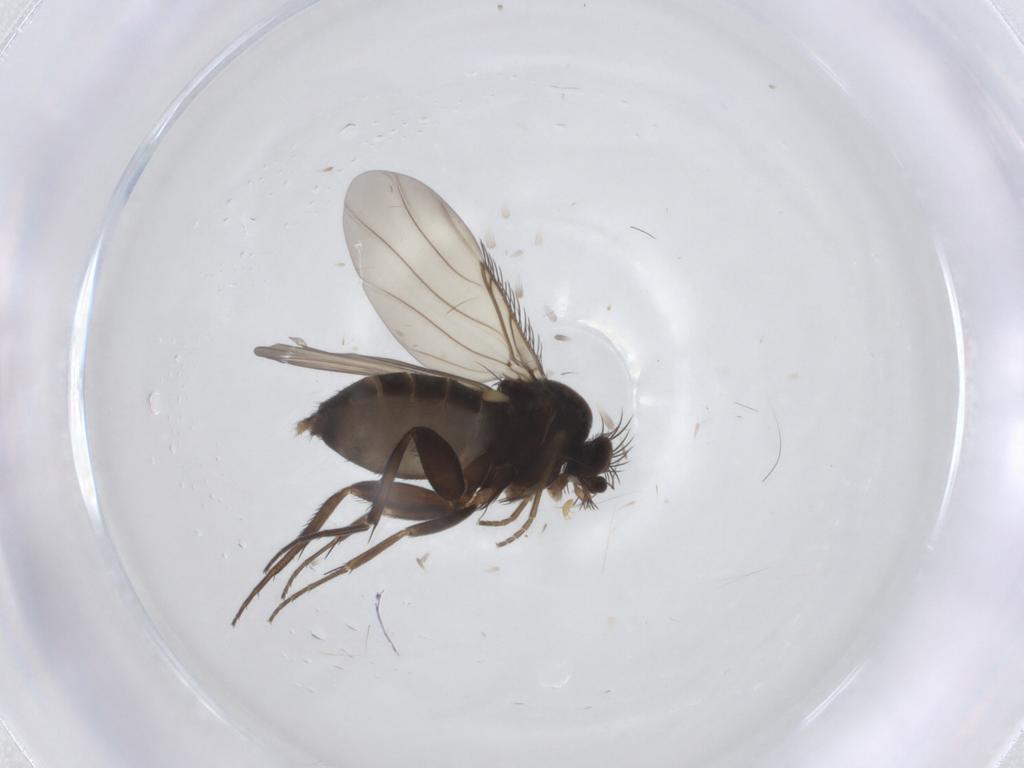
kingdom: Animalia
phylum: Arthropoda
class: Insecta
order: Diptera
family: Phoridae
